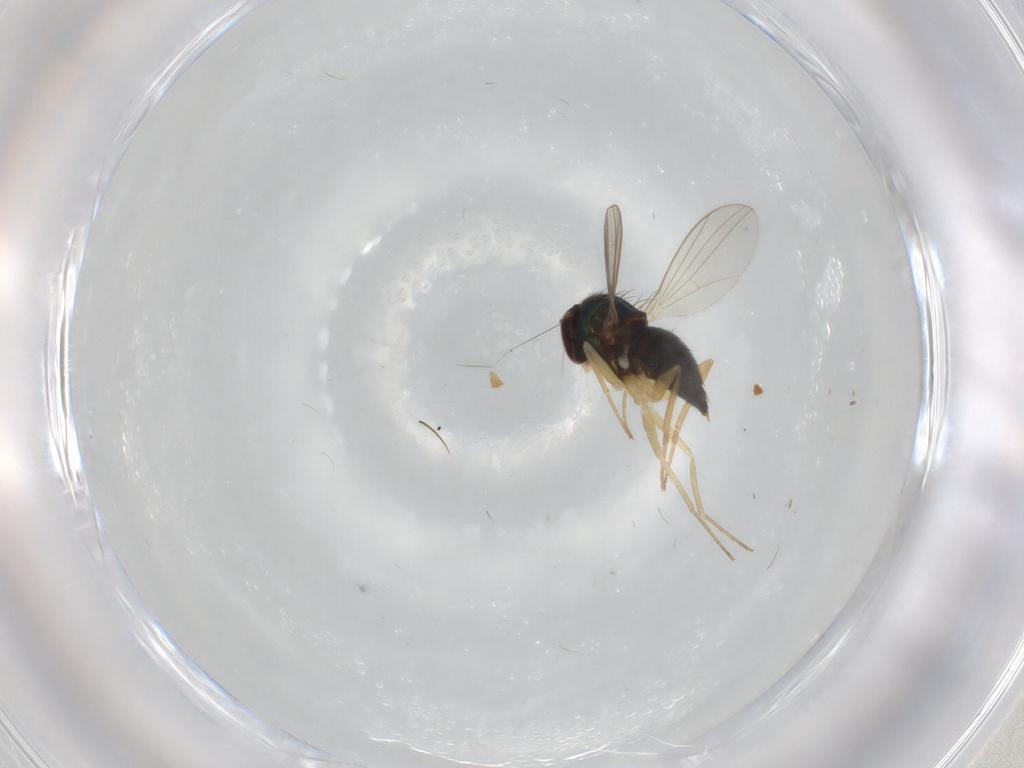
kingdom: Animalia
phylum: Arthropoda
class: Insecta
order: Diptera
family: Dolichopodidae
